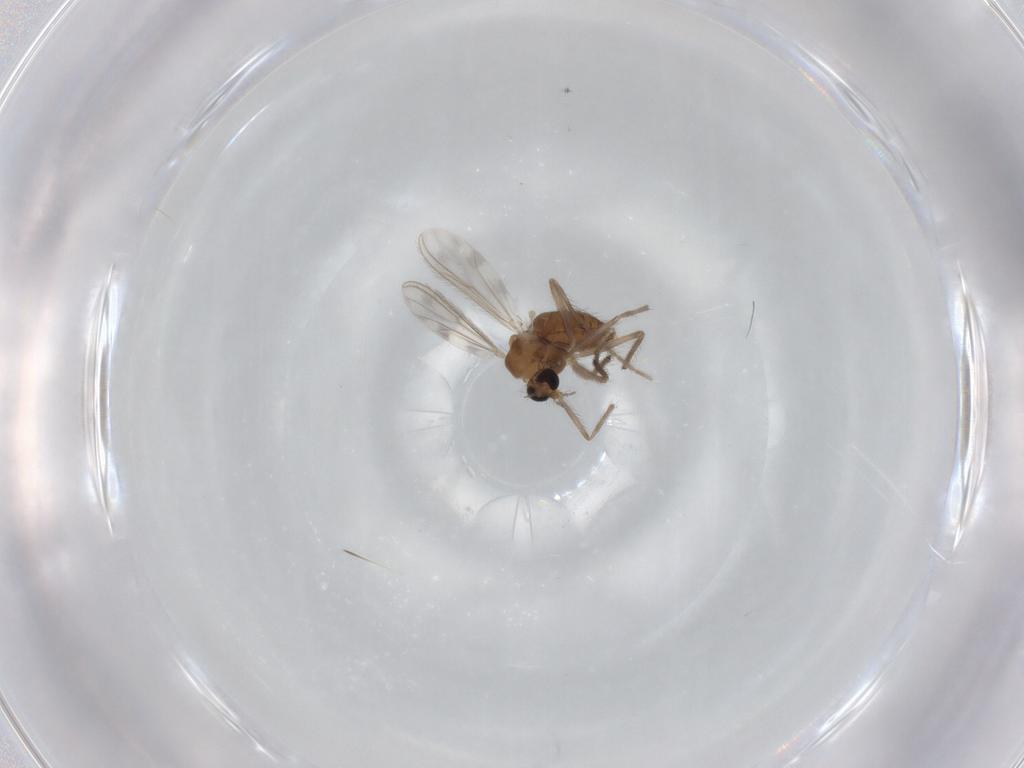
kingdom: Animalia
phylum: Arthropoda
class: Insecta
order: Diptera
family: Chironomidae
